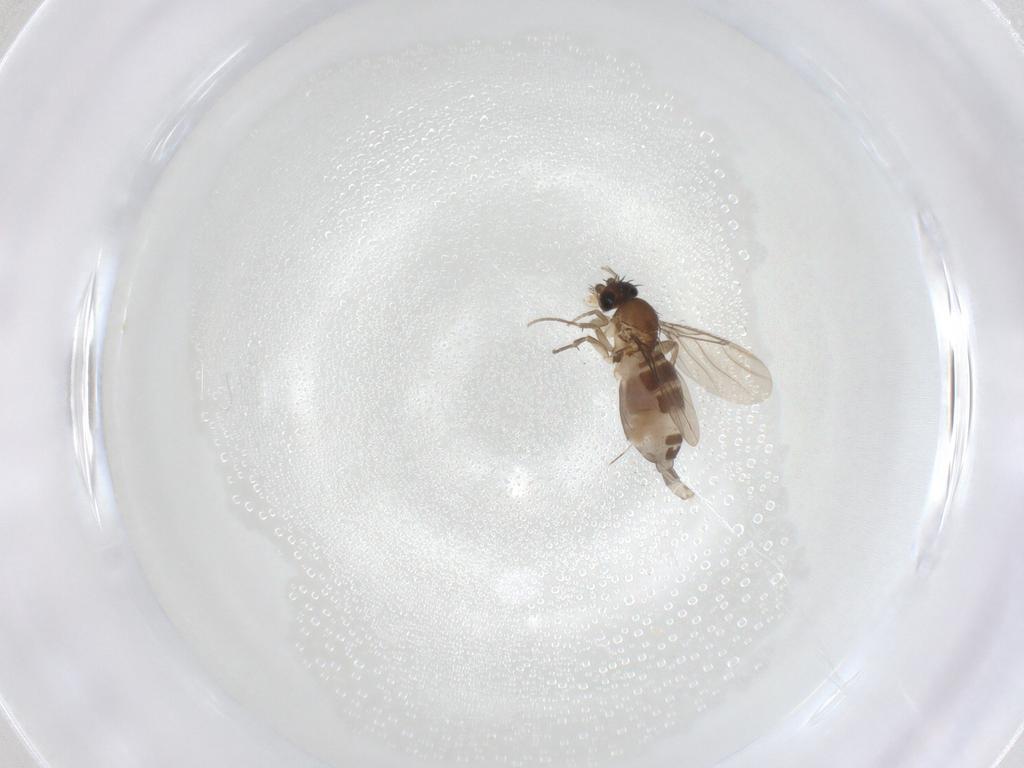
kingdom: Animalia
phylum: Arthropoda
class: Insecta
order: Diptera
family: Phoridae
